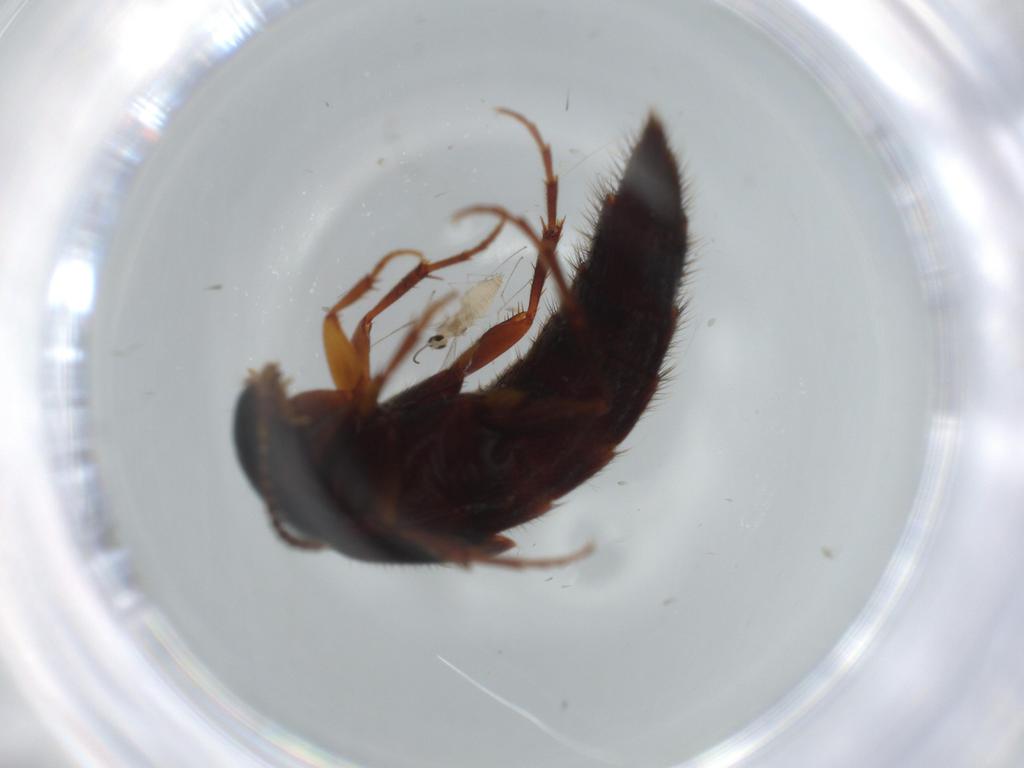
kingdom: Animalia
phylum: Arthropoda
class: Insecta
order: Coleoptera
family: Staphylinidae
